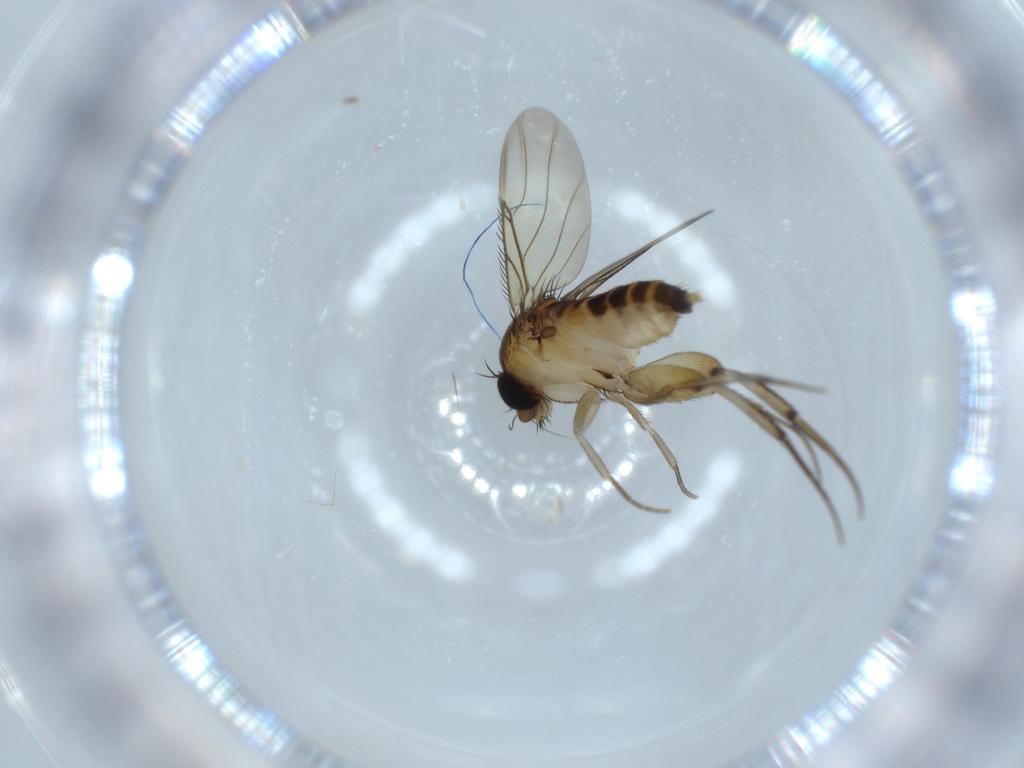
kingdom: Animalia
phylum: Arthropoda
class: Insecta
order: Diptera
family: Phoridae
